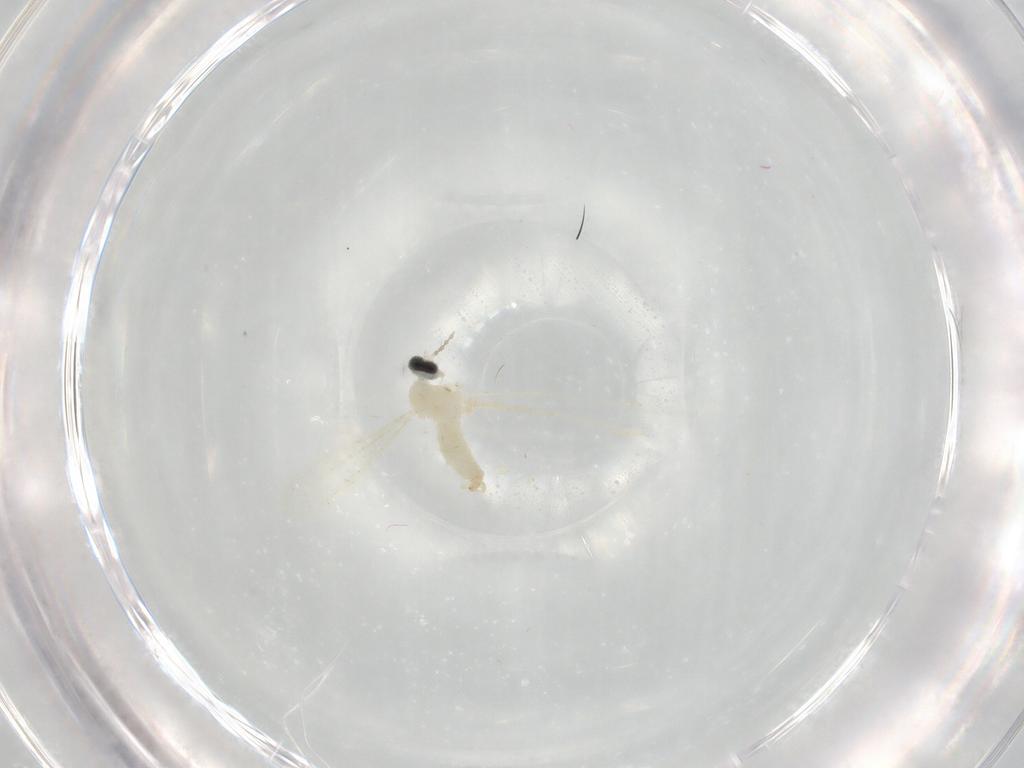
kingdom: Animalia
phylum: Arthropoda
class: Insecta
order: Diptera
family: Cecidomyiidae
